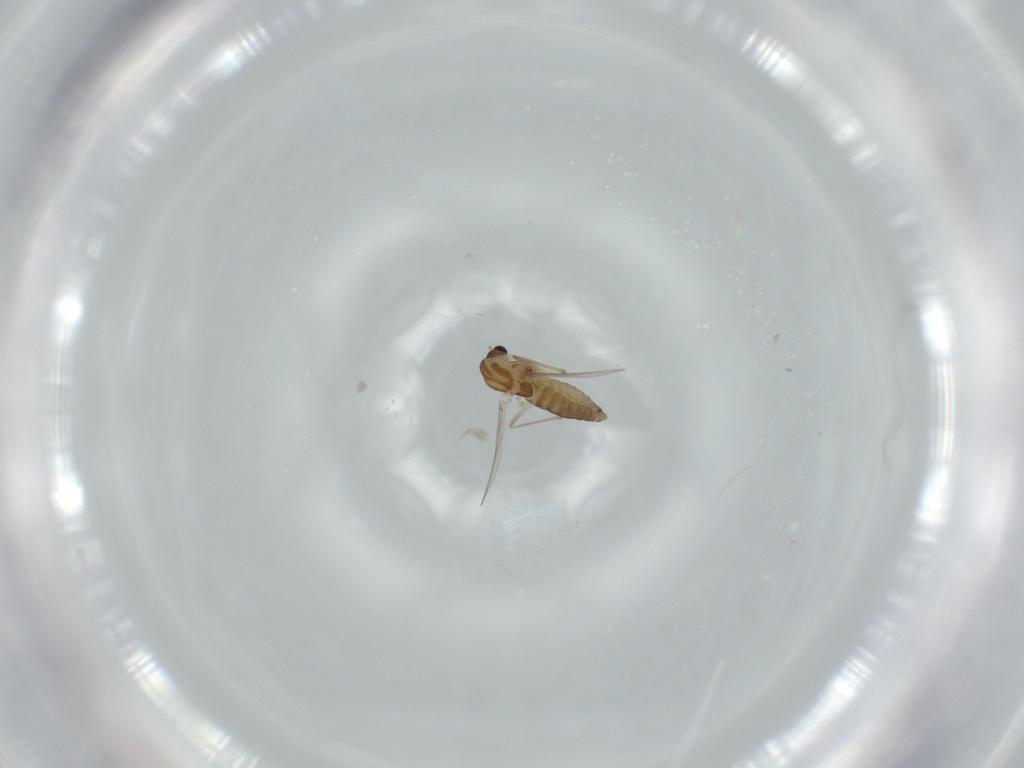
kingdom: Animalia
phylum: Arthropoda
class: Insecta
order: Diptera
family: Chironomidae
